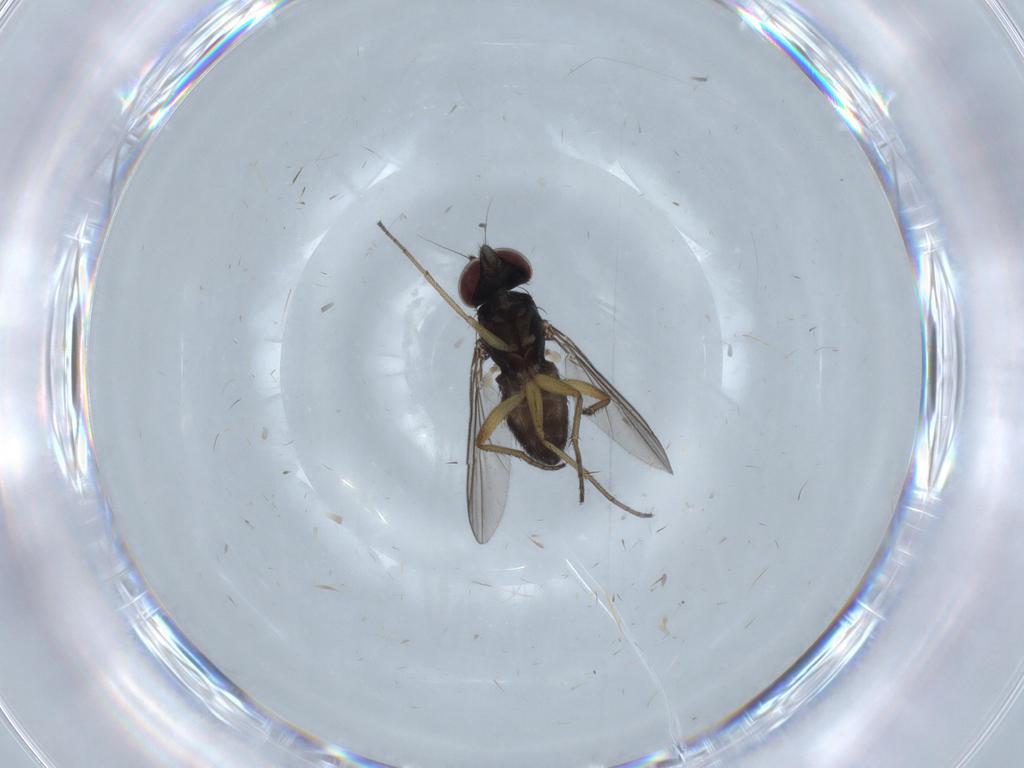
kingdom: Animalia
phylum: Arthropoda
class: Insecta
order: Diptera
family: Dolichopodidae
